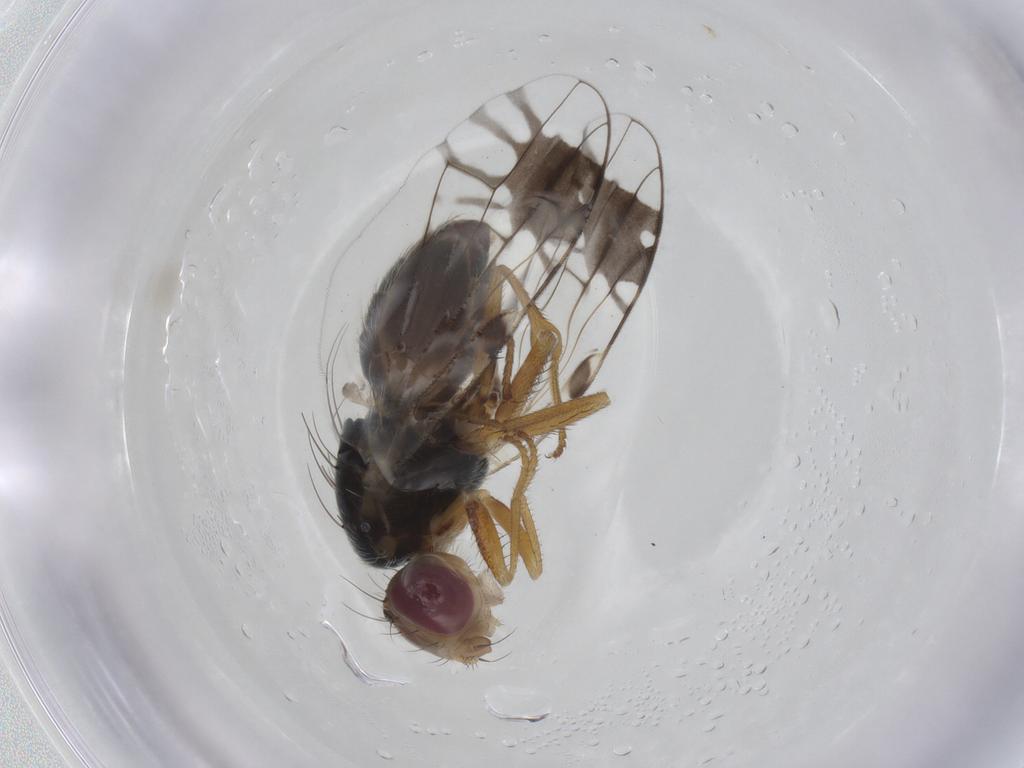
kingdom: Animalia
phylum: Arthropoda
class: Insecta
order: Diptera
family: Tephritidae
